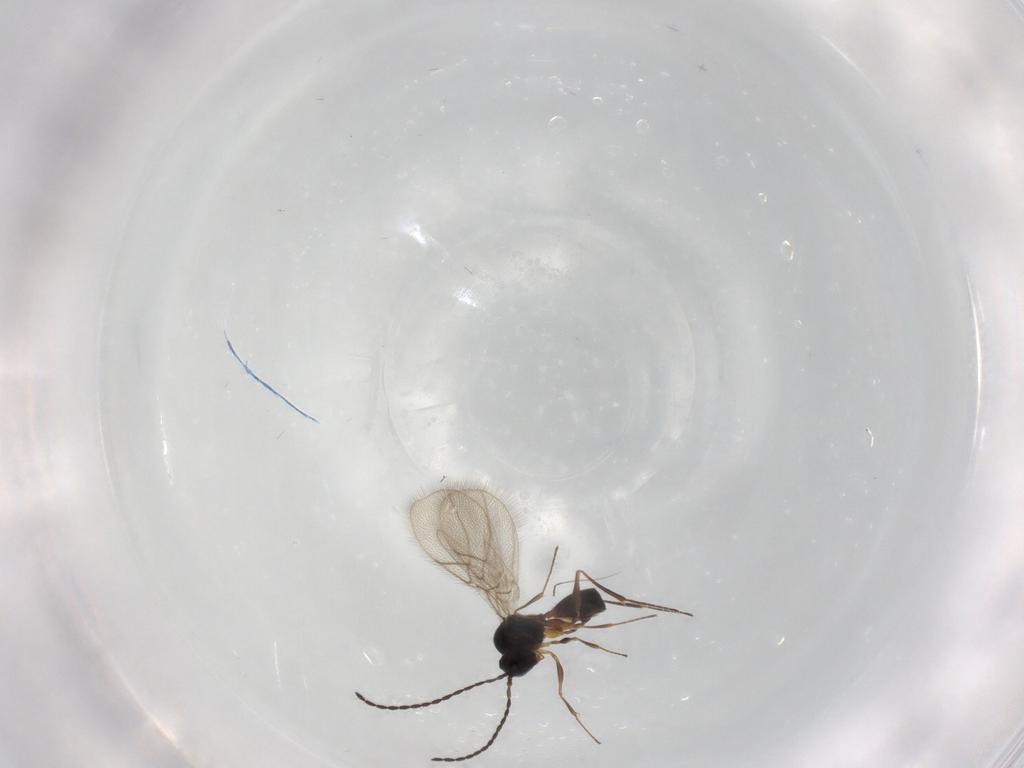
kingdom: Animalia
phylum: Arthropoda
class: Insecta
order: Hymenoptera
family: Figitidae
